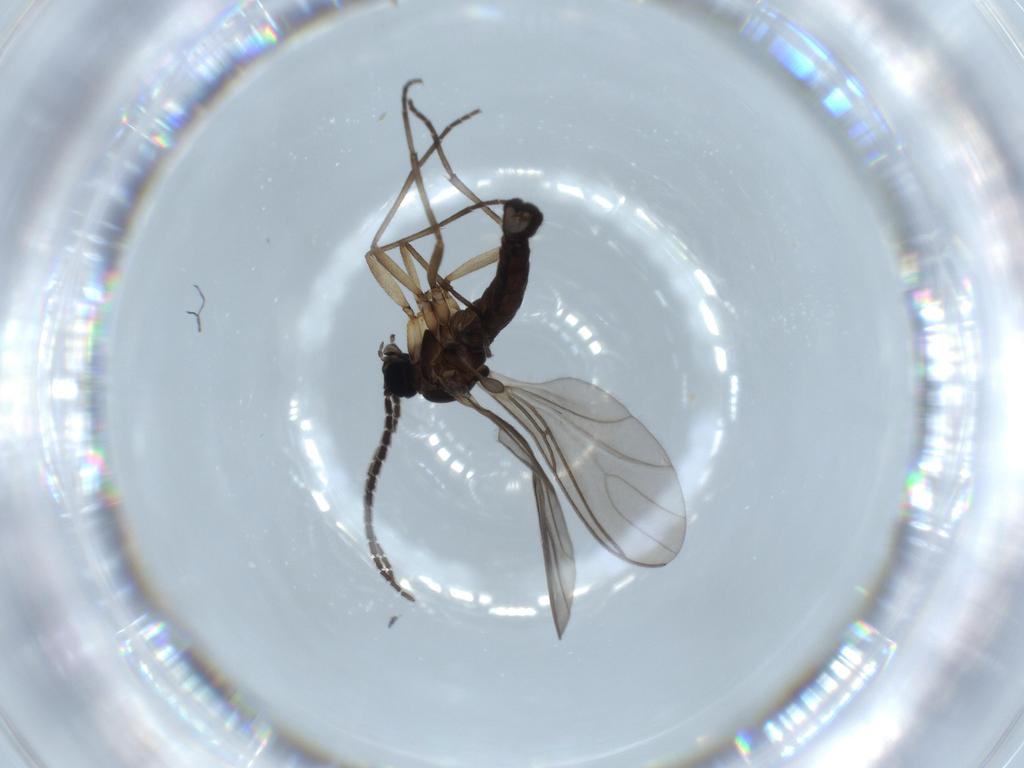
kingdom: Animalia
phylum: Arthropoda
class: Insecta
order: Diptera
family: Sciaridae
